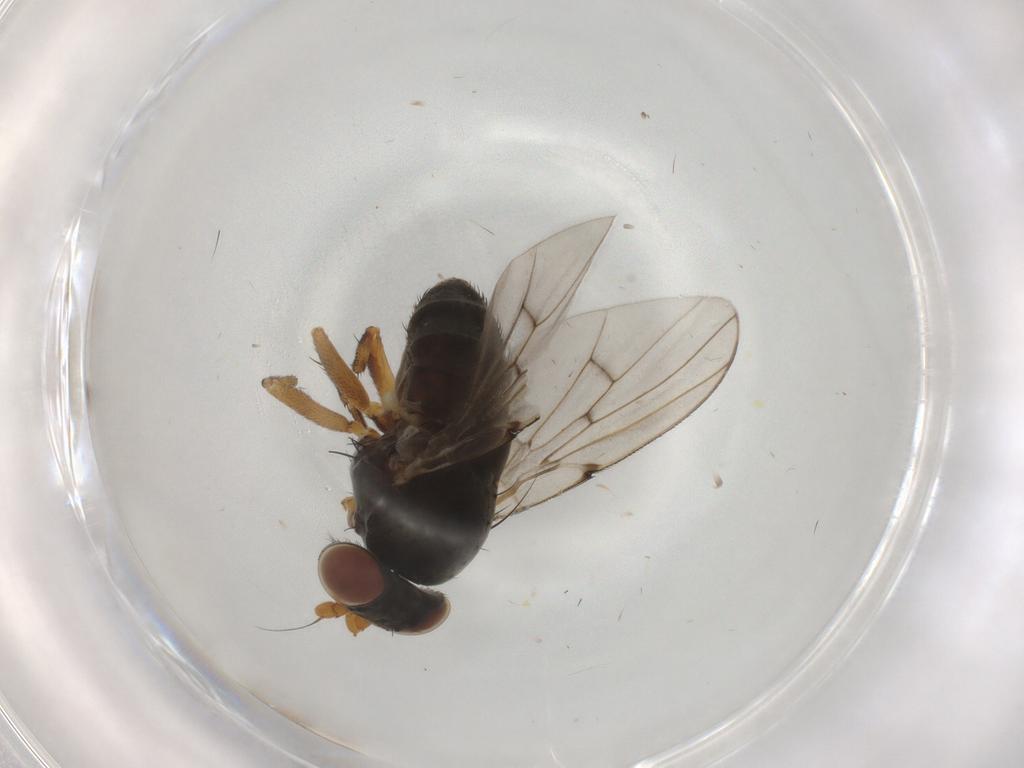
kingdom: Animalia
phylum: Arthropoda
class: Insecta
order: Diptera
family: Odiniidae
